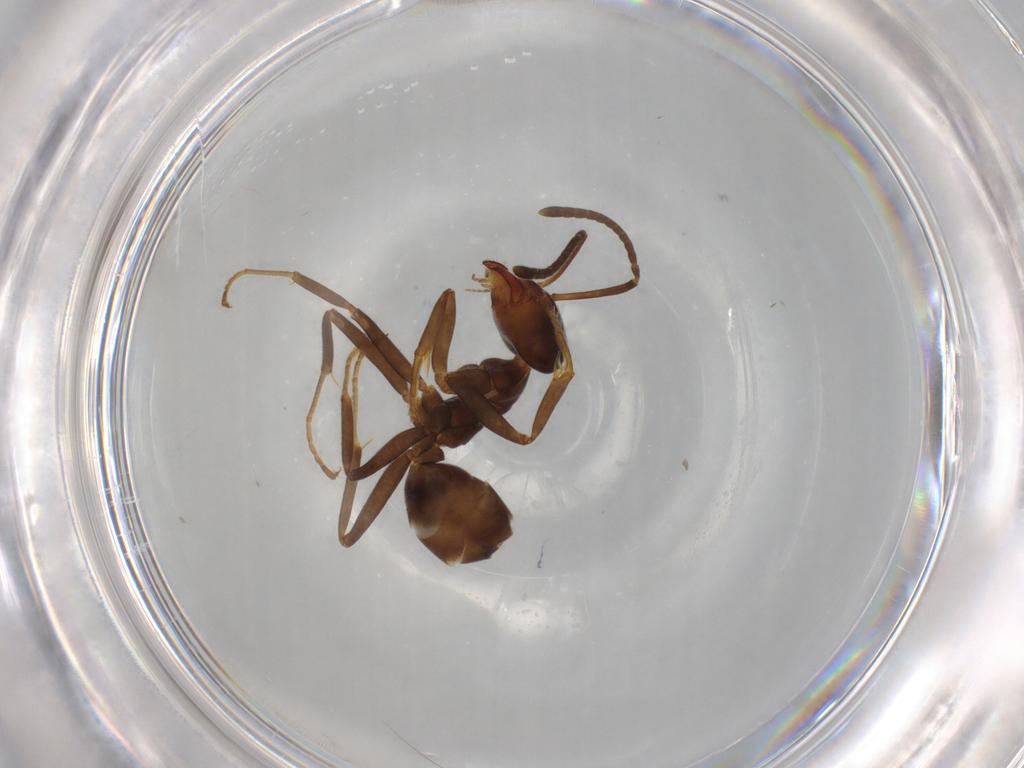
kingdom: Animalia
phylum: Arthropoda
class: Insecta
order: Hymenoptera
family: Formicidae
